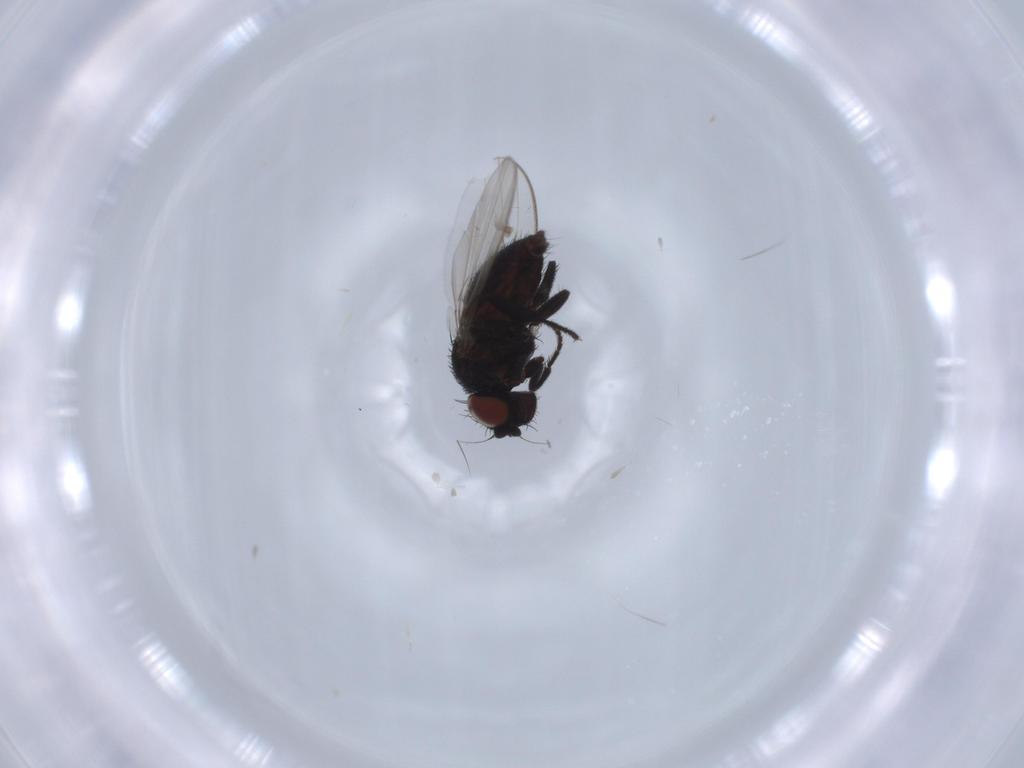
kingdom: Animalia
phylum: Arthropoda
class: Insecta
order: Diptera
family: Milichiidae
